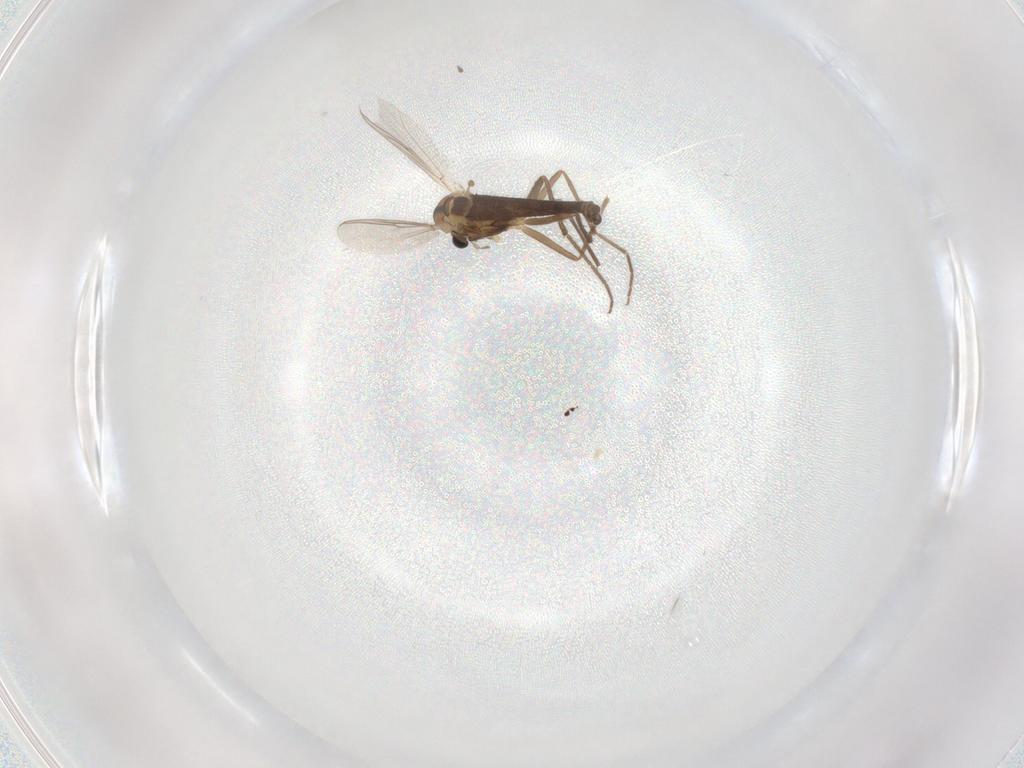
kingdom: Animalia
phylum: Arthropoda
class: Insecta
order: Diptera
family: Chironomidae
